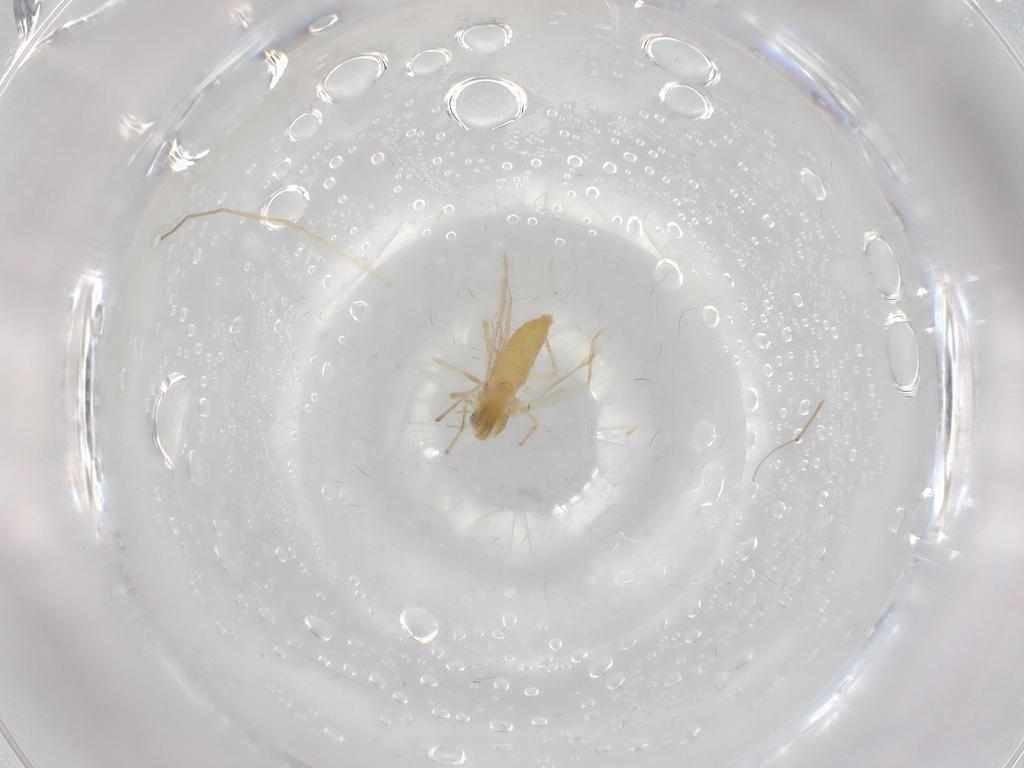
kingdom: Animalia
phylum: Arthropoda
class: Insecta
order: Diptera
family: Chironomidae
